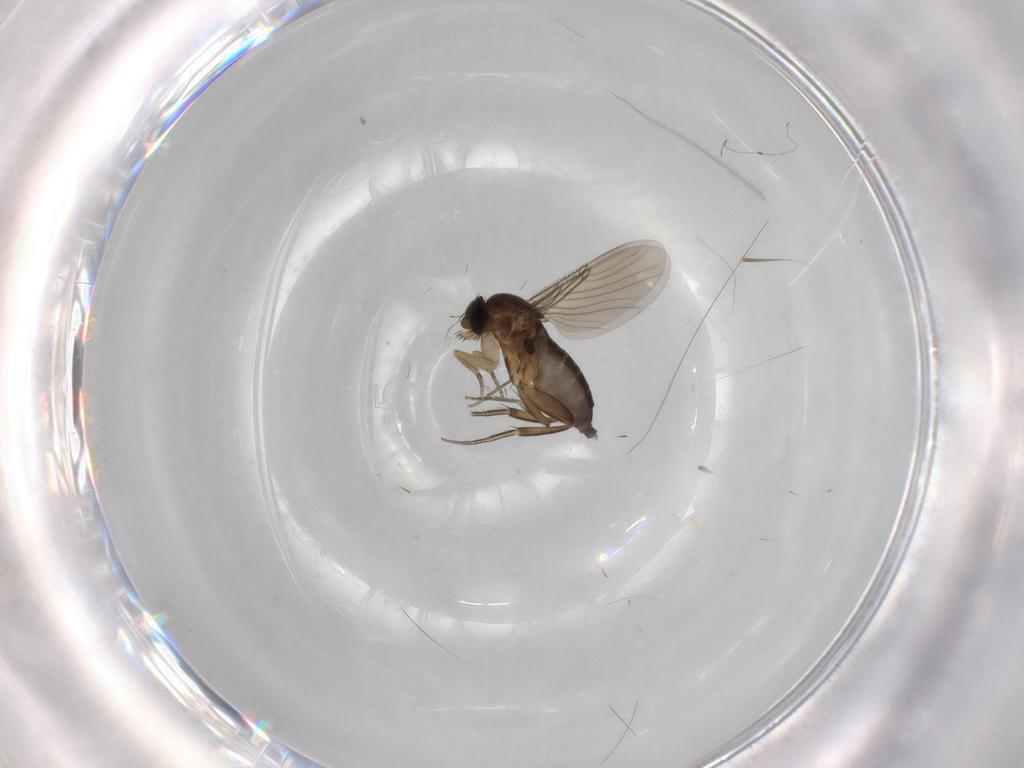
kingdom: Animalia
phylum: Arthropoda
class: Insecta
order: Diptera
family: Phoridae
